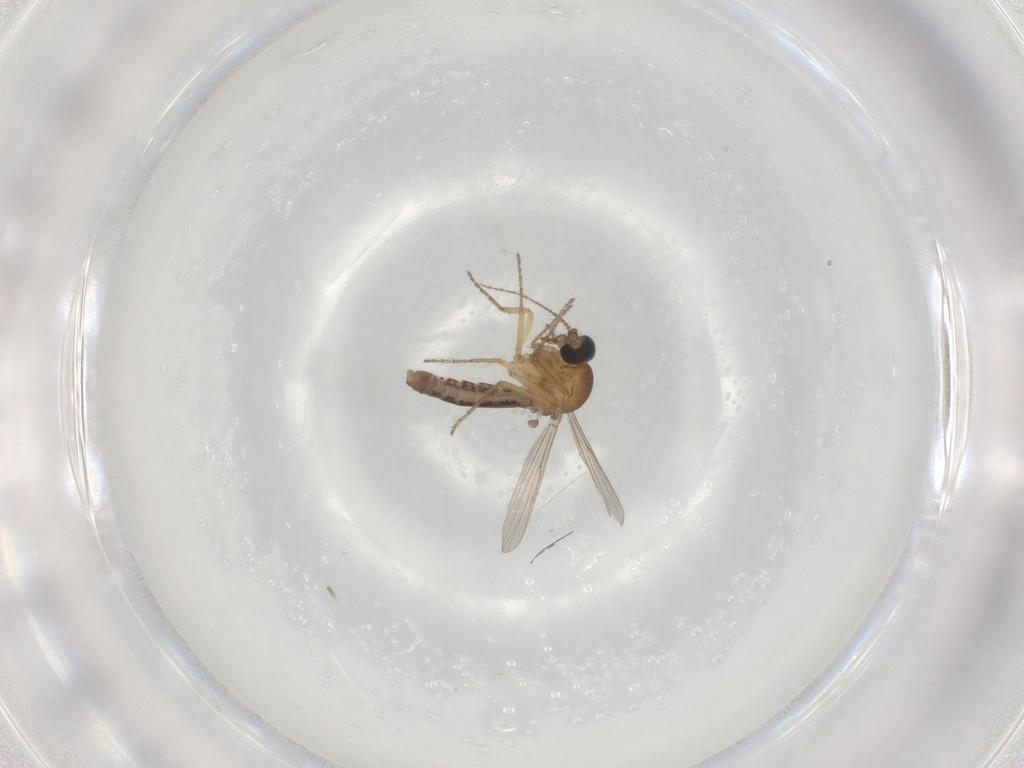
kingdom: Animalia
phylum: Arthropoda
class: Insecta
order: Diptera
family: Ceratopogonidae
